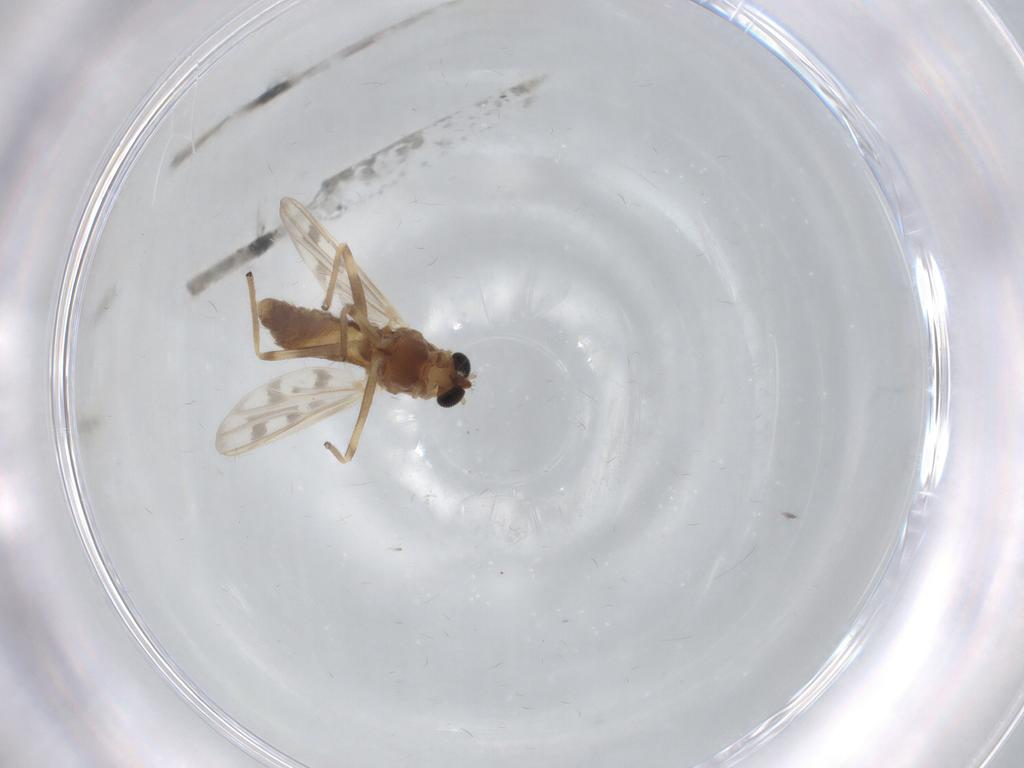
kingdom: Animalia
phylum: Arthropoda
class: Insecta
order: Diptera
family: Chironomidae
